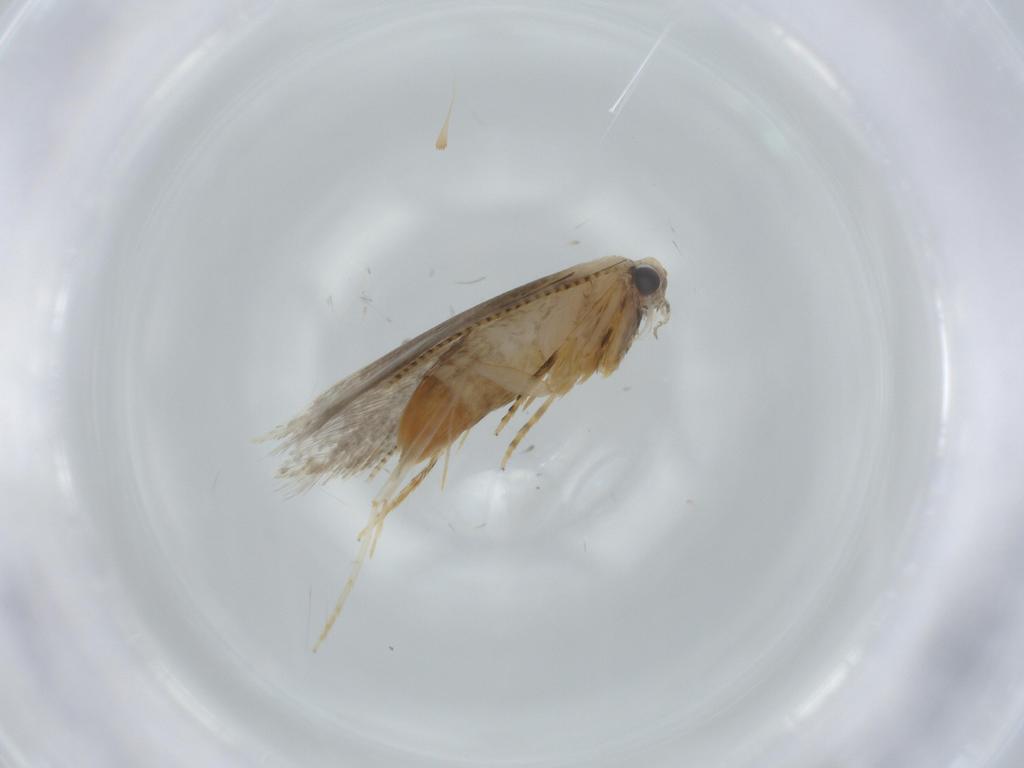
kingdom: Animalia
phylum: Arthropoda
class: Insecta
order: Lepidoptera
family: Tineidae
